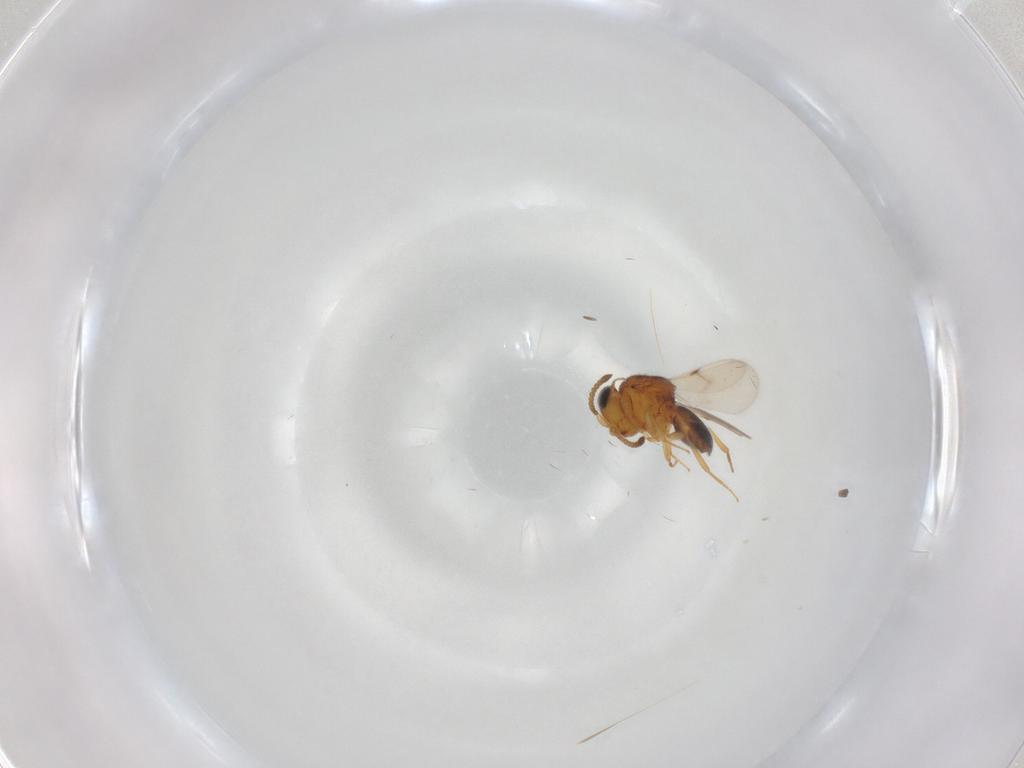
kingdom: Animalia
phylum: Arthropoda
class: Insecta
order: Hymenoptera
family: Scelionidae
